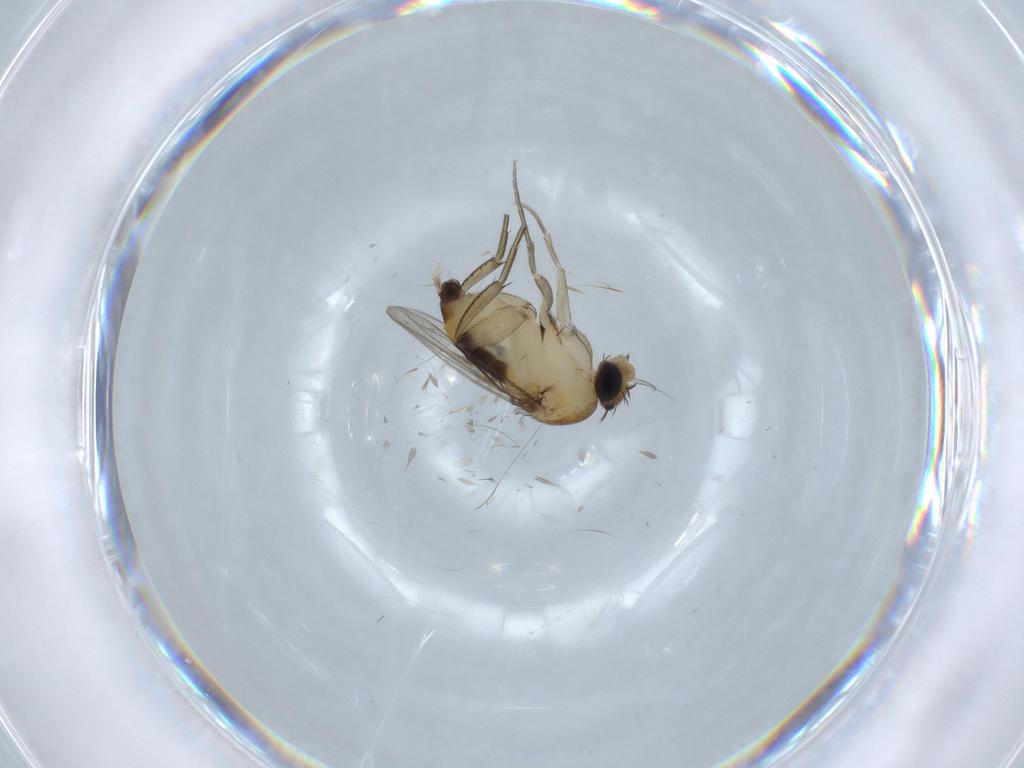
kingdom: Animalia
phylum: Arthropoda
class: Insecta
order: Diptera
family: Phoridae
